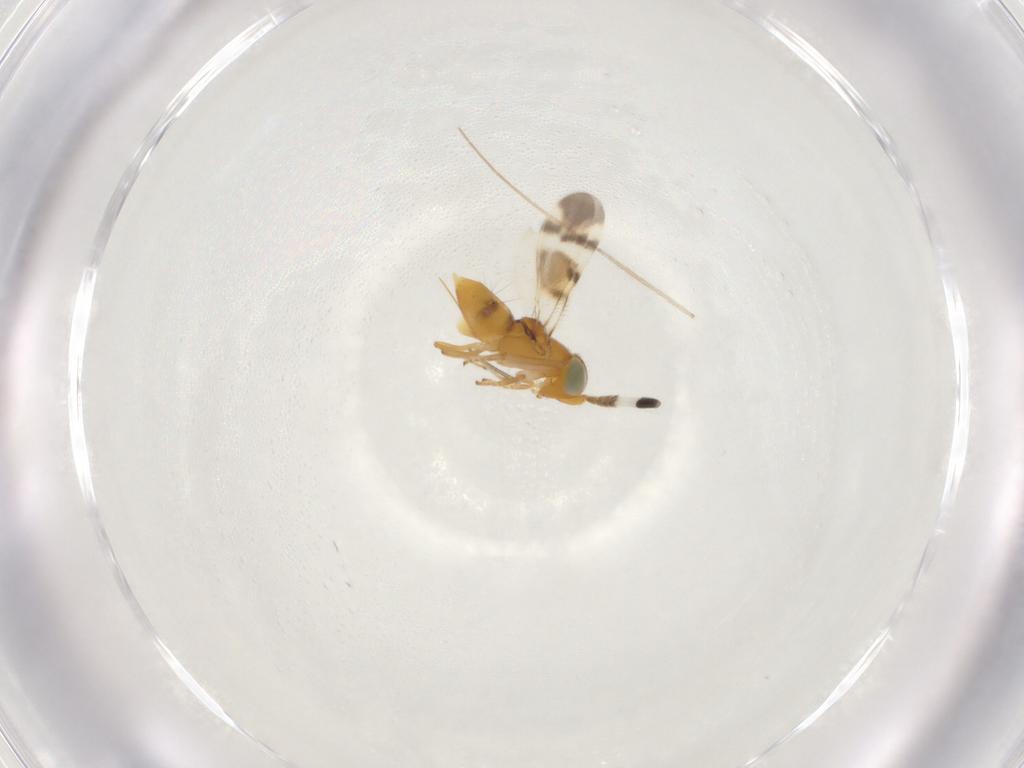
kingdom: Animalia
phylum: Arthropoda
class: Insecta
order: Hymenoptera
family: Encyrtidae
